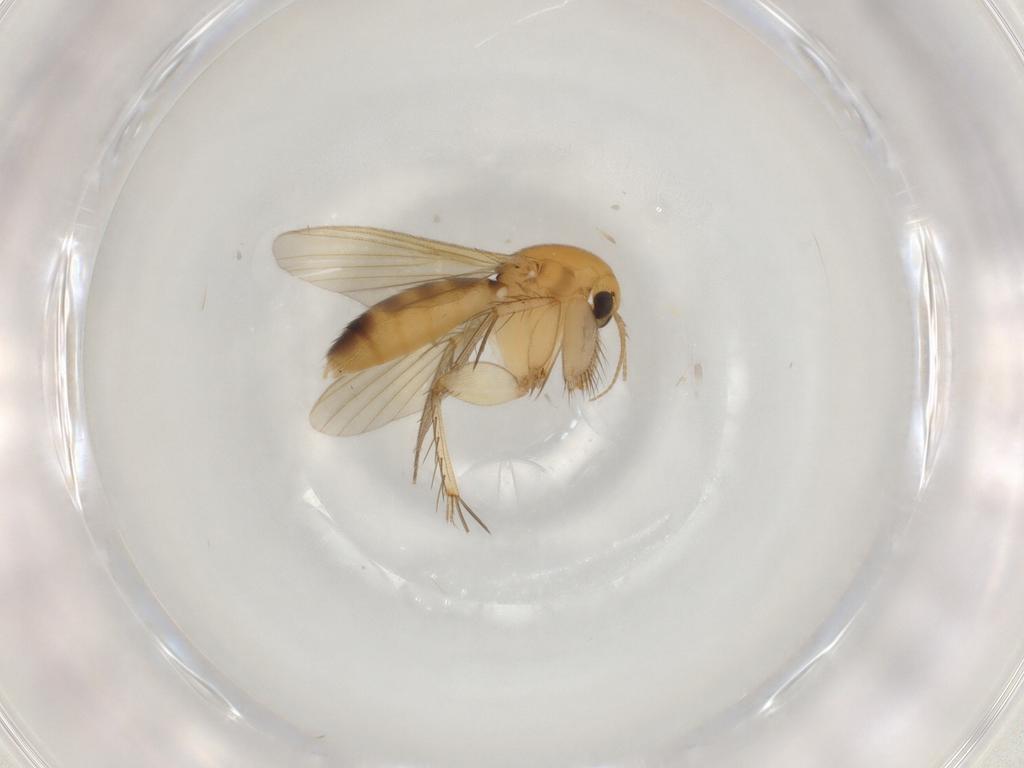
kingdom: Animalia
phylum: Arthropoda
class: Insecta
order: Diptera
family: Mycetophilidae
